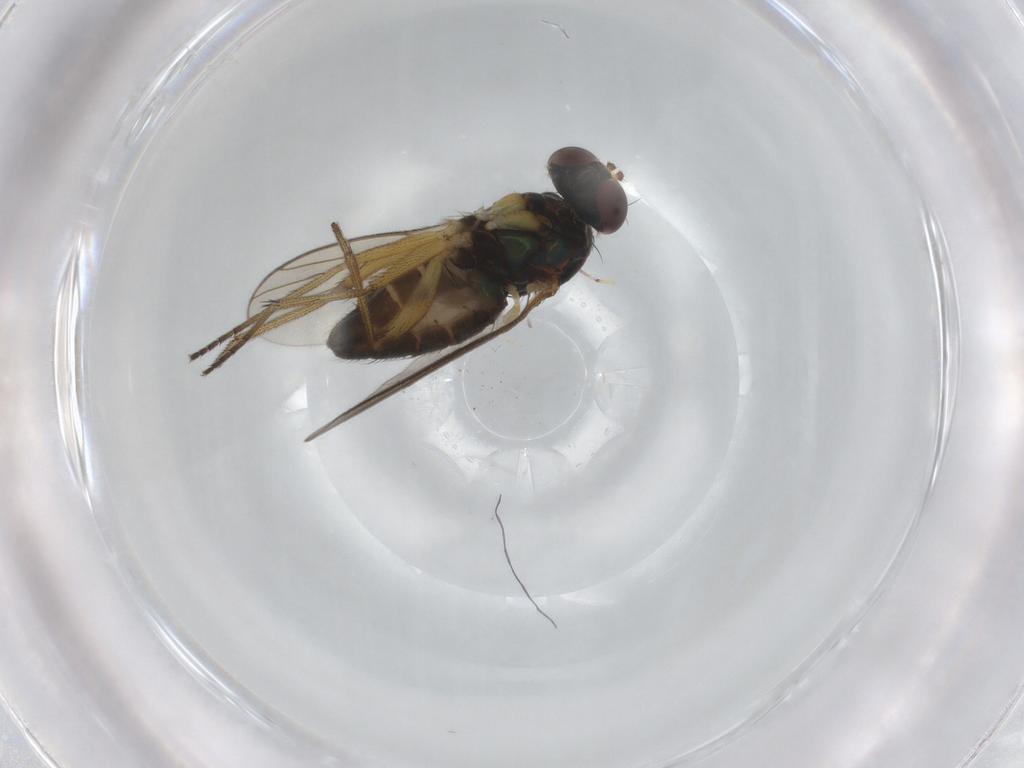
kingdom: Animalia
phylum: Arthropoda
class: Insecta
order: Diptera
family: Dolichopodidae
